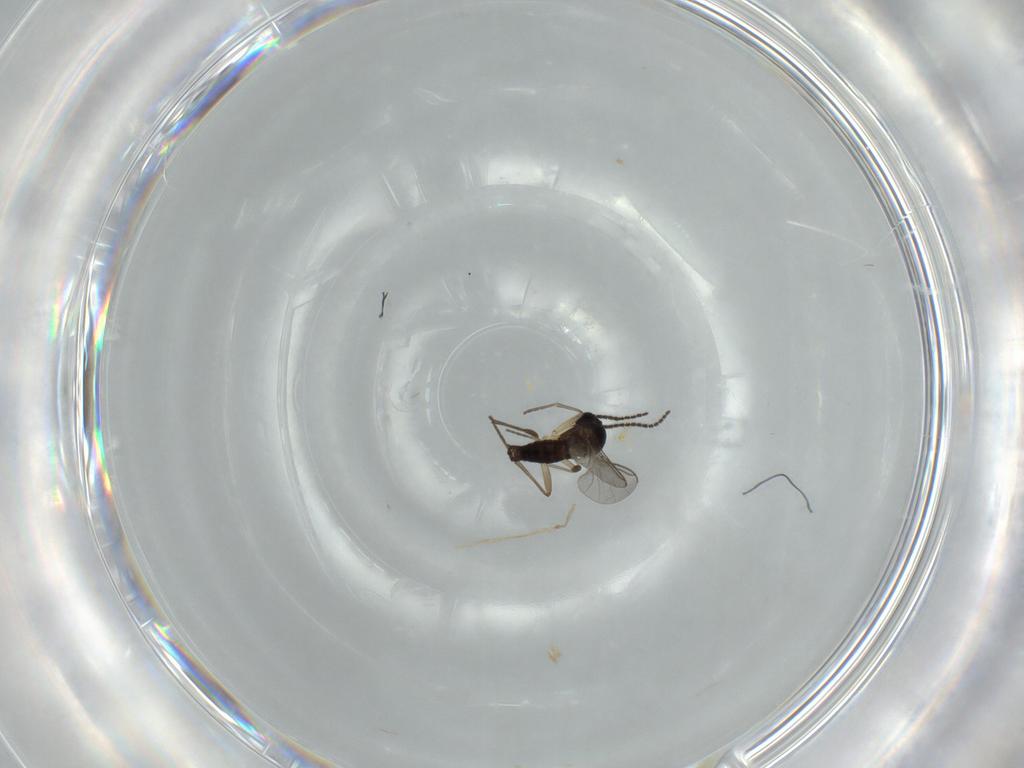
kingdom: Animalia
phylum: Arthropoda
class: Insecta
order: Diptera
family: Sciaridae
